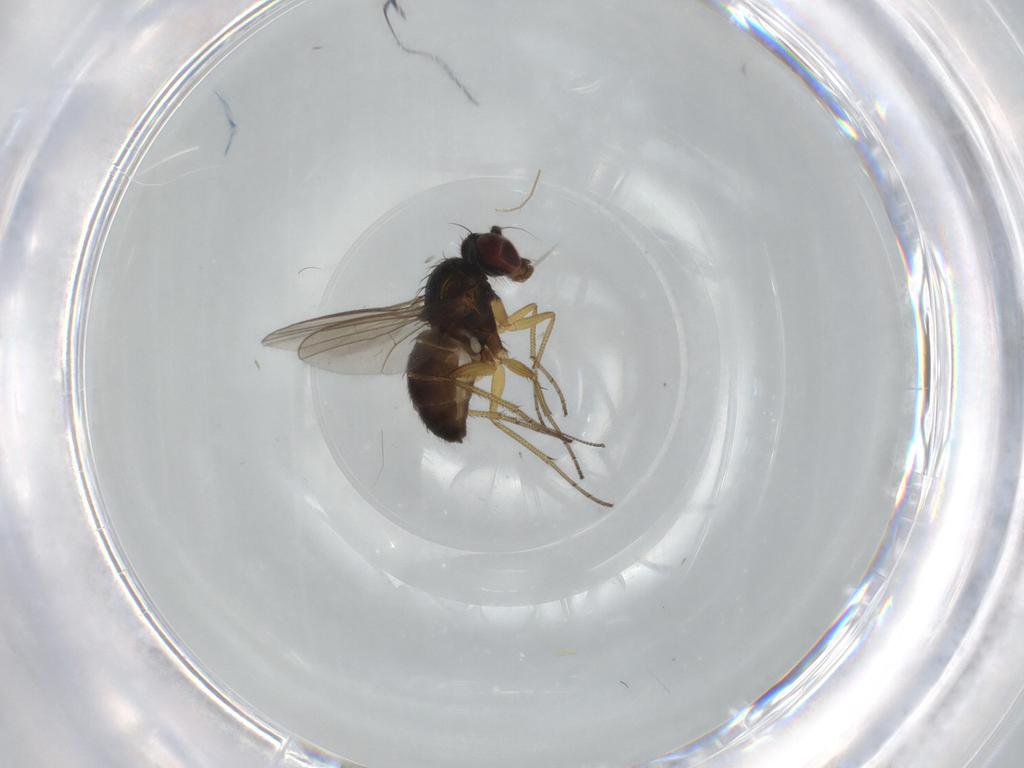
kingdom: Animalia
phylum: Arthropoda
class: Insecta
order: Diptera
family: Dolichopodidae
